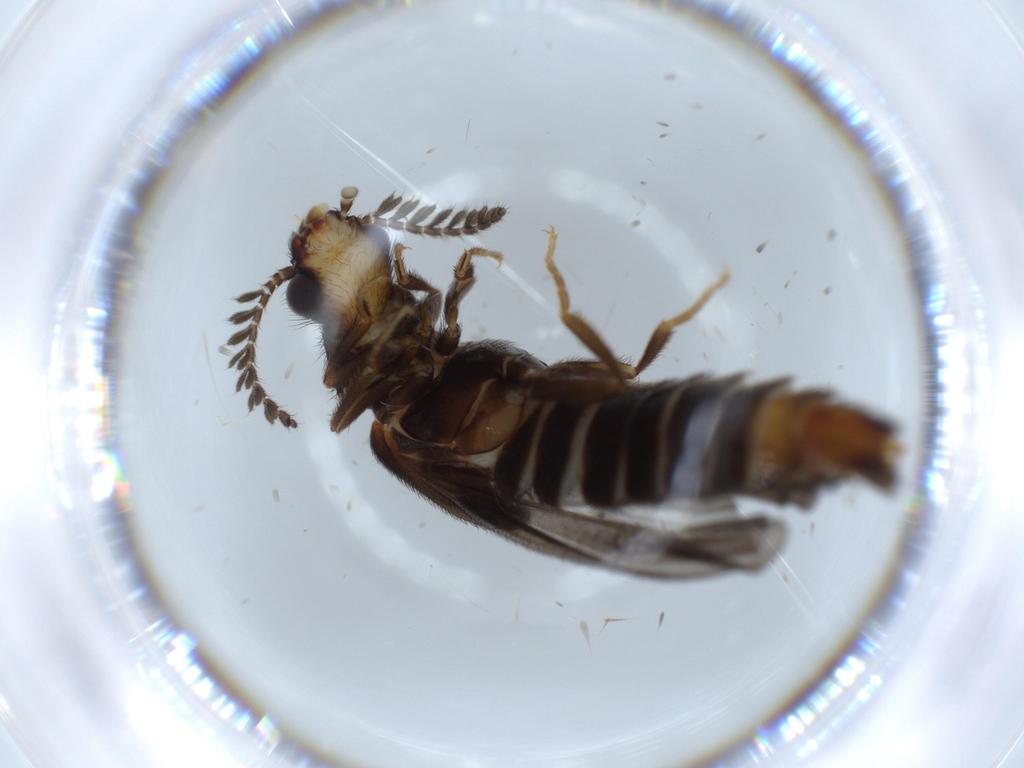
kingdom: Animalia
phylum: Arthropoda
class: Insecta
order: Coleoptera
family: Phengodidae
